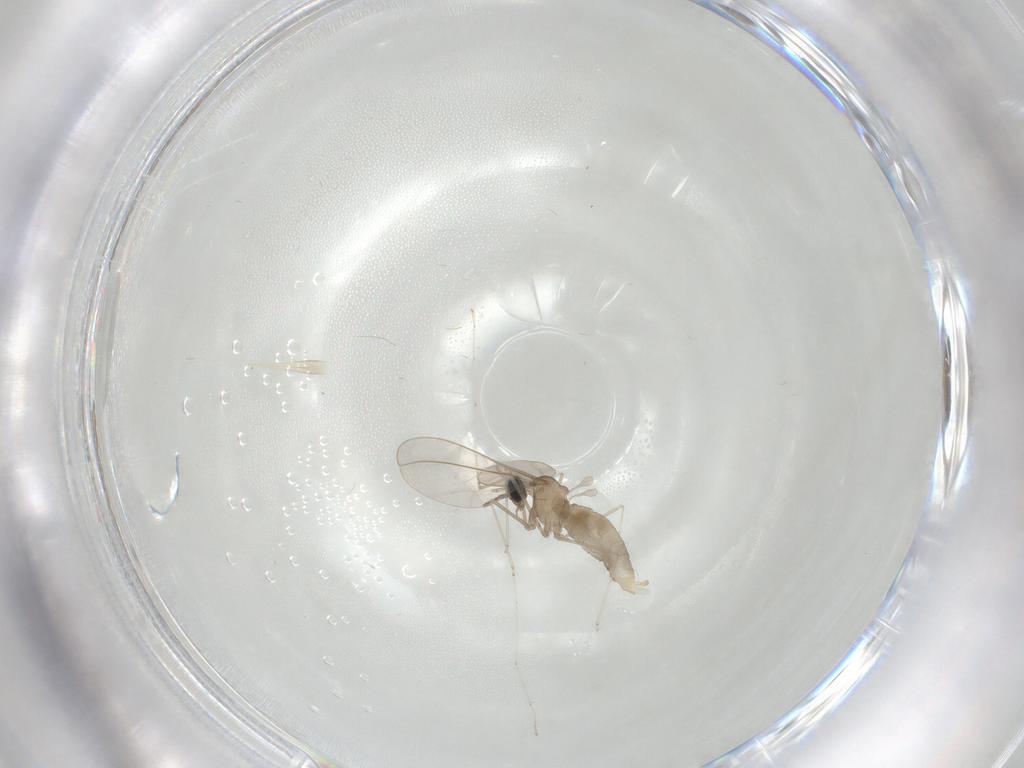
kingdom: Animalia
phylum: Arthropoda
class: Insecta
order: Diptera
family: Cecidomyiidae
